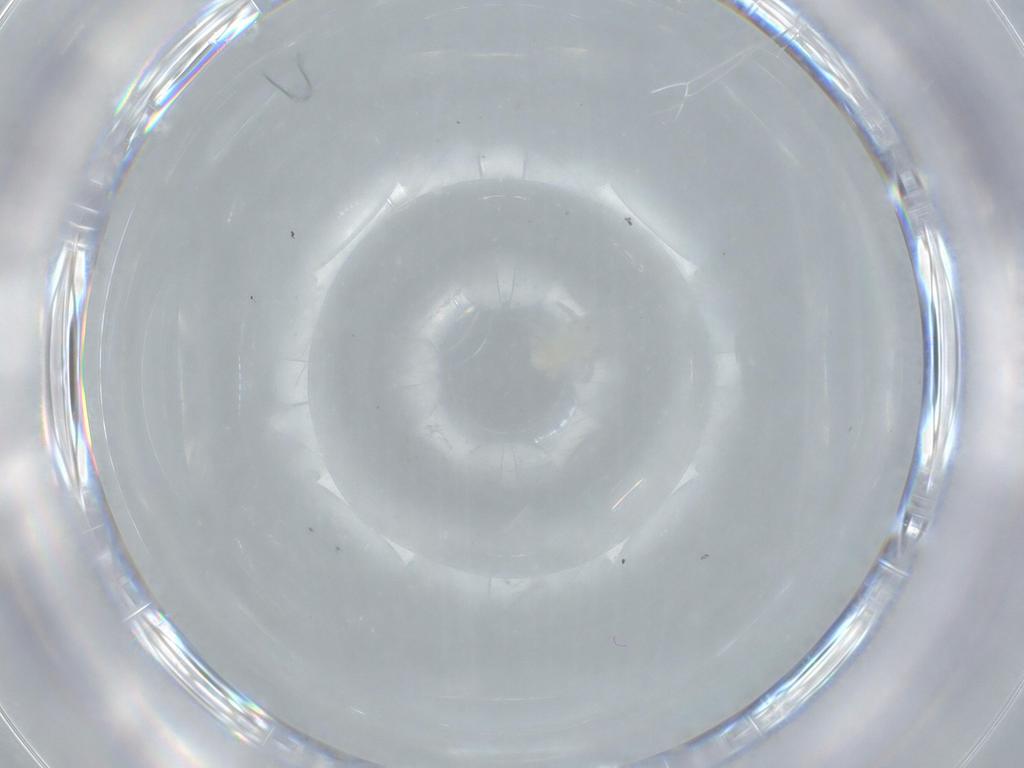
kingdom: Animalia
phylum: Arthropoda
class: Arachnida
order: Mesostigmata
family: Dermanyssidae
